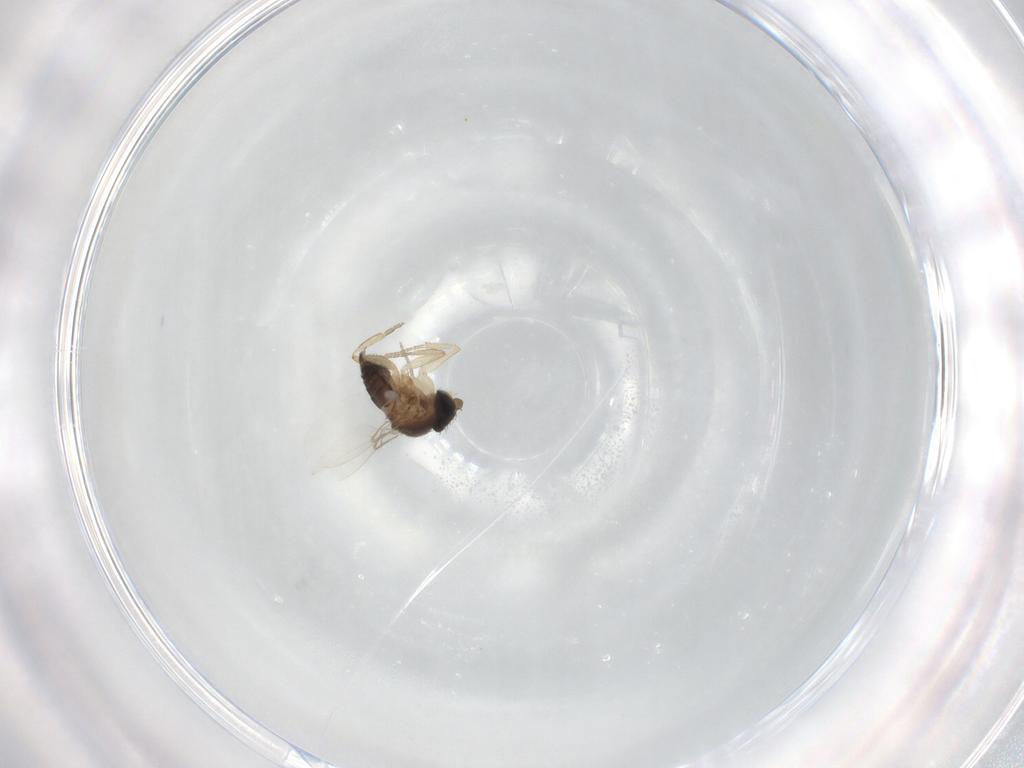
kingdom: Animalia
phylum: Arthropoda
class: Insecta
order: Diptera
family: Phoridae
